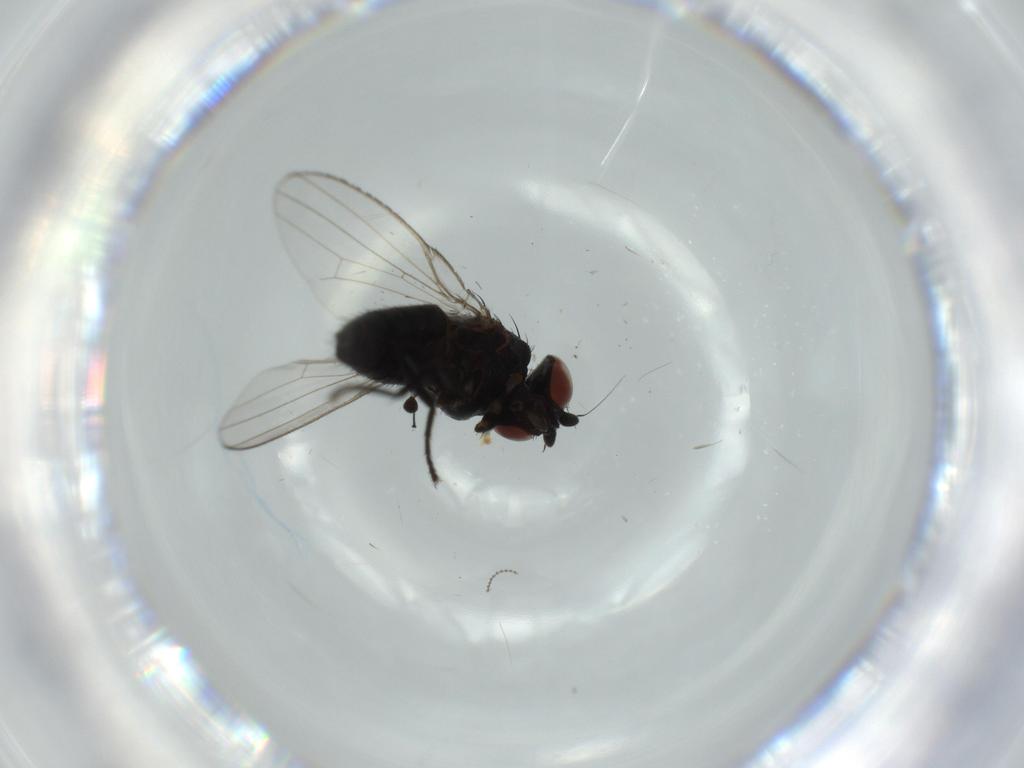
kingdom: Animalia
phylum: Arthropoda
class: Insecta
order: Diptera
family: Milichiidae
